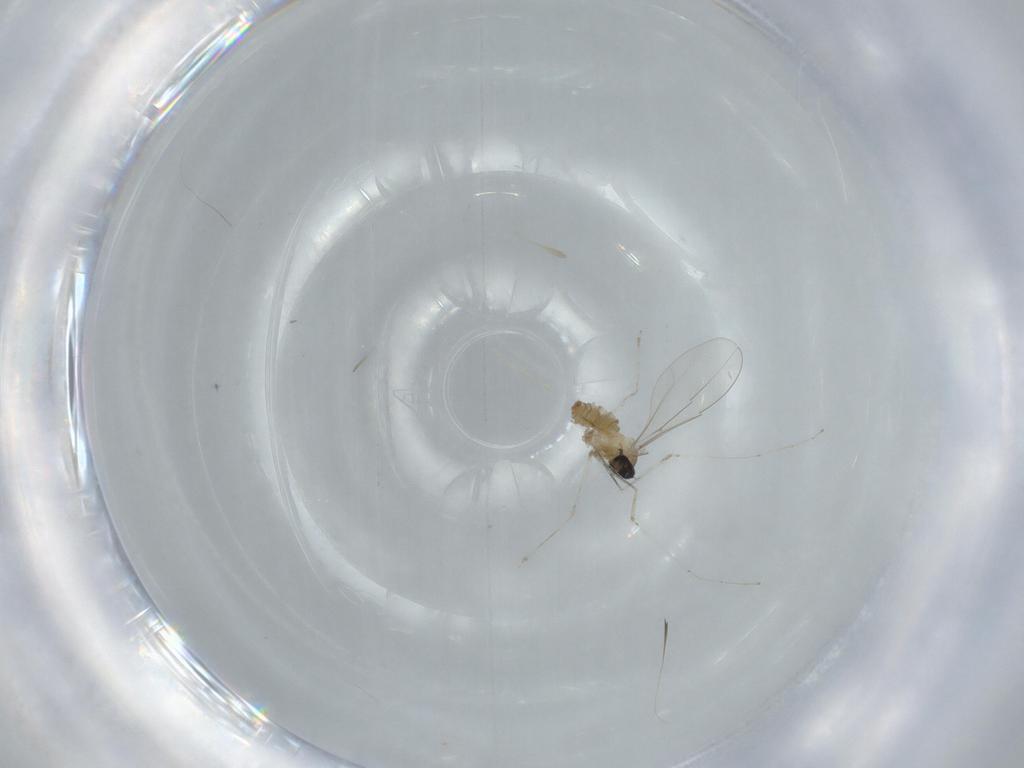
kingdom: Animalia
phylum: Arthropoda
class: Insecta
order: Diptera
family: Cecidomyiidae
